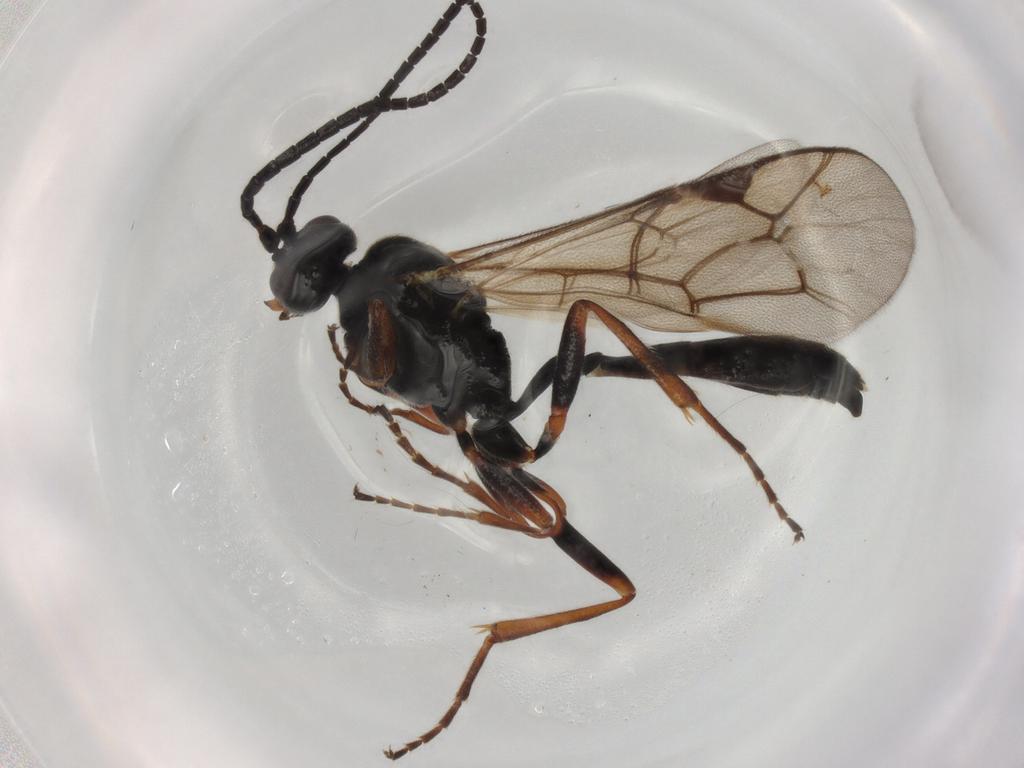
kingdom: Animalia
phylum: Arthropoda
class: Insecta
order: Hymenoptera
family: Ichneumonidae
